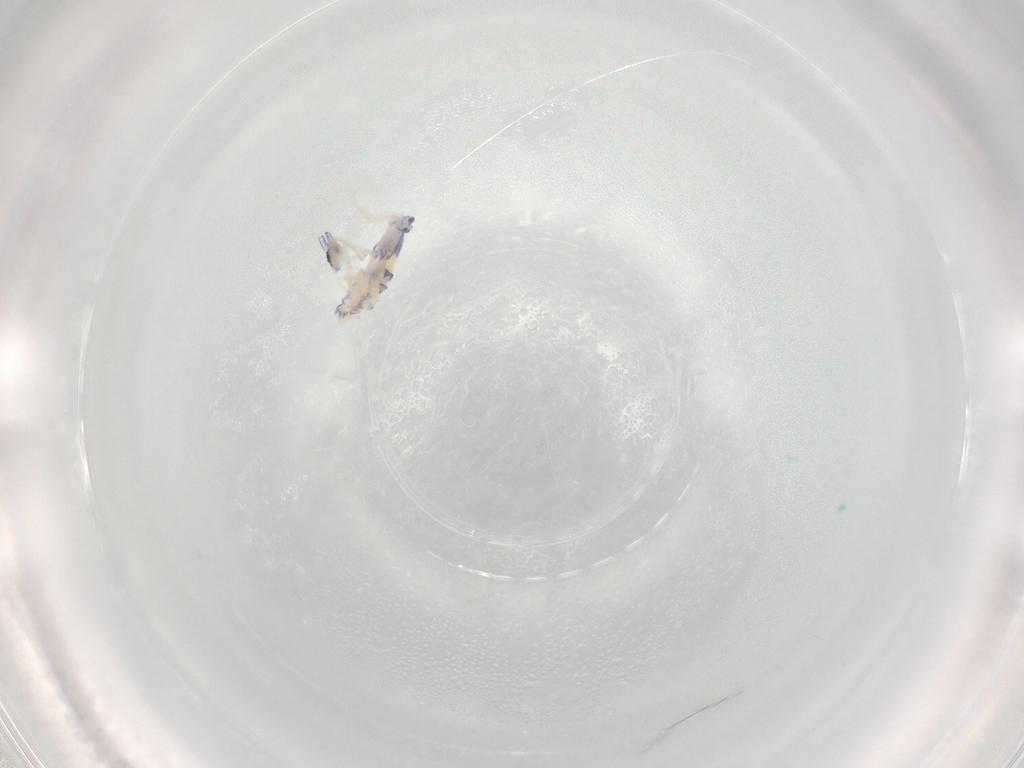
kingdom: Animalia
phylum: Arthropoda
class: Collembola
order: Entomobryomorpha
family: Entomobryidae
